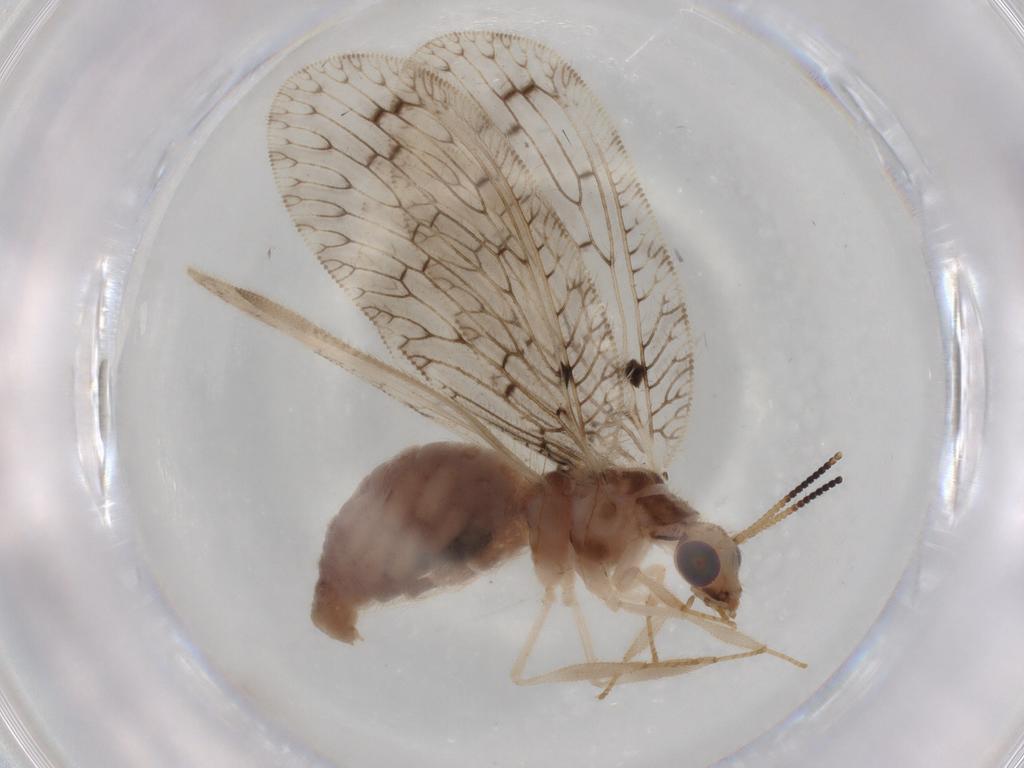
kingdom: Animalia
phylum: Arthropoda
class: Insecta
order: Neuroptera
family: Hemerobiidae
